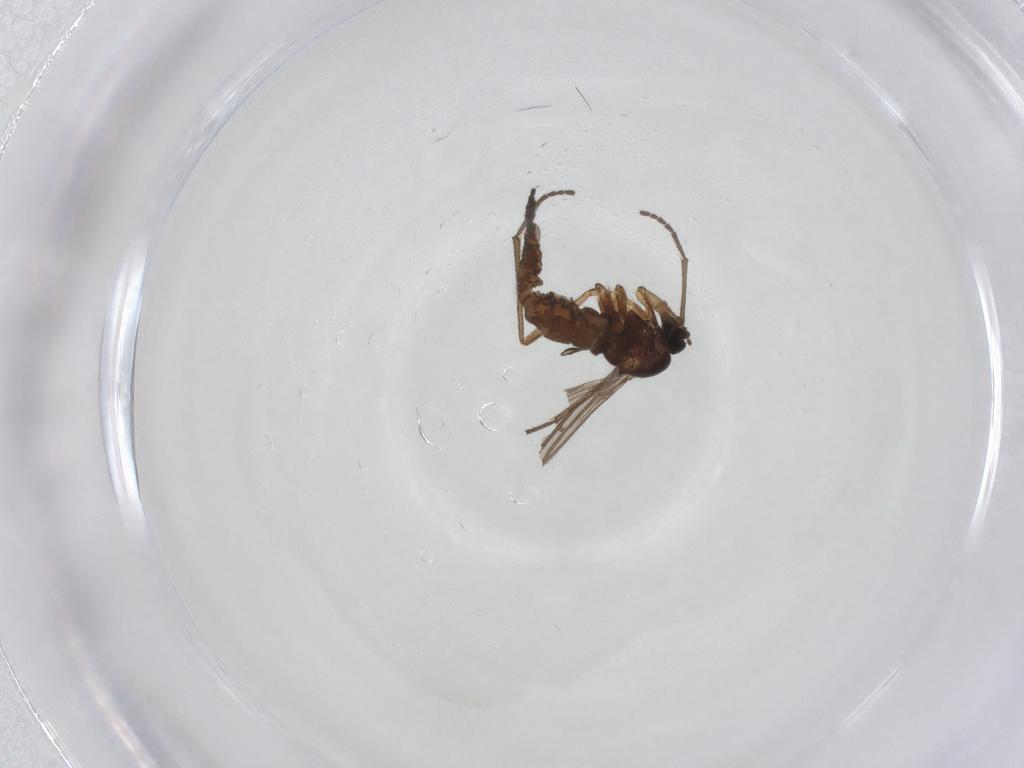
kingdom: Animalia
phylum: Arthropoda
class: Insecta
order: Diptera
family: Sciaridae
